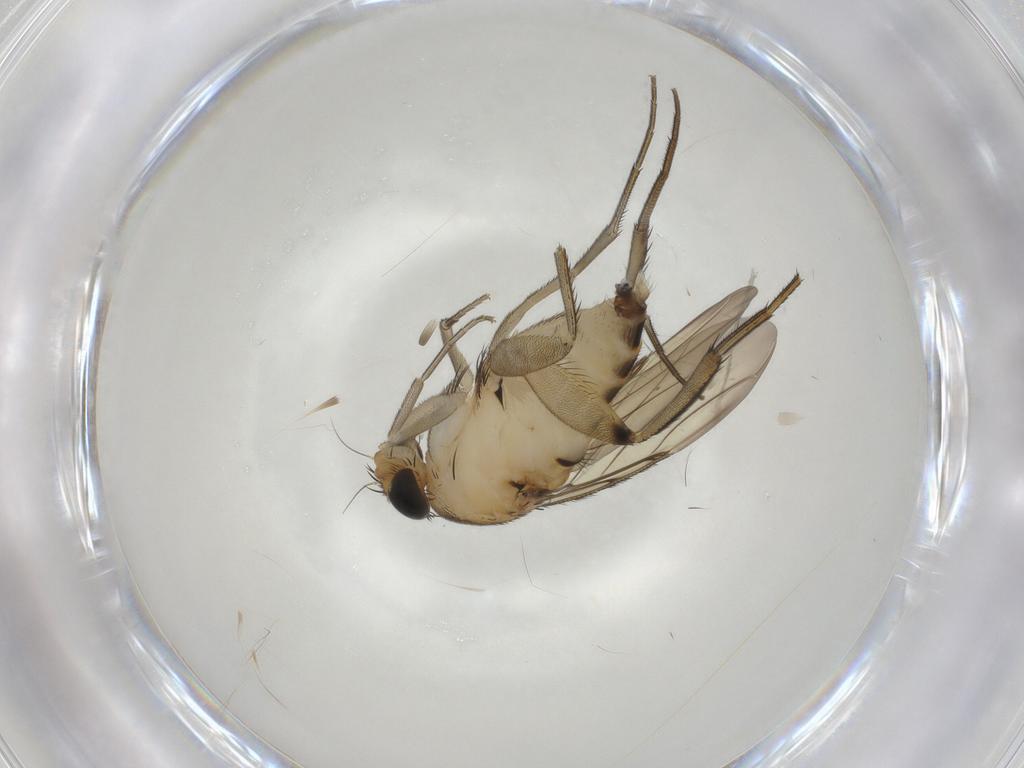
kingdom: Animalia
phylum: Arthropoda
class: Insecta
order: Diptera
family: Phoridae
